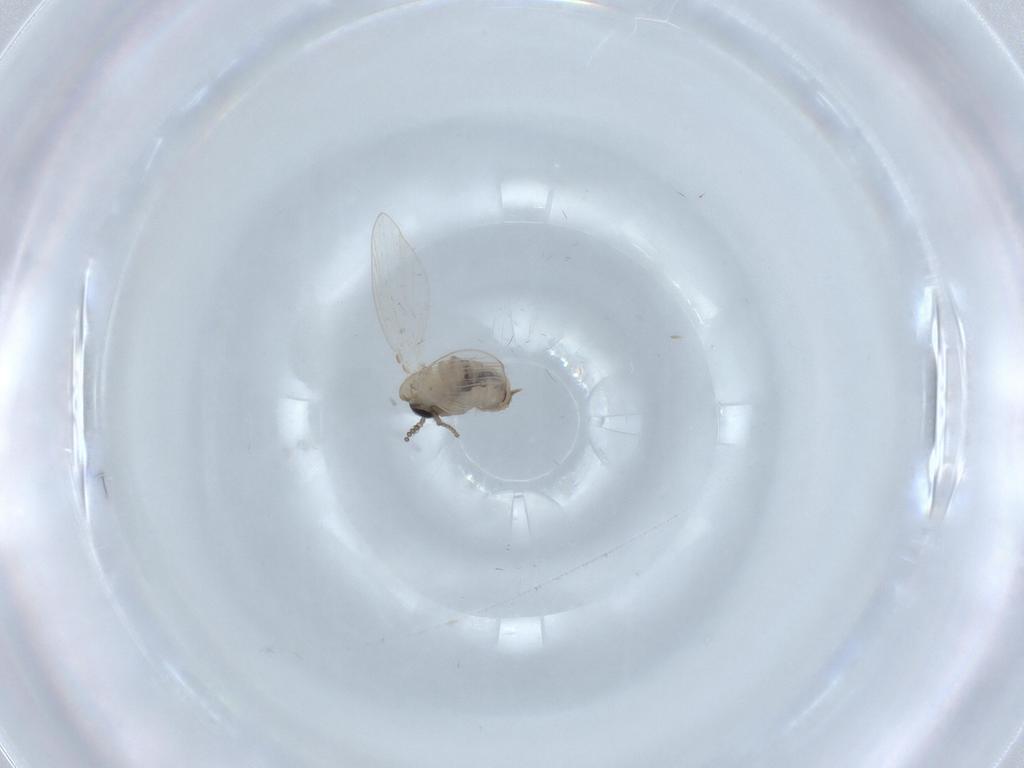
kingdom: Animalia
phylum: Arthropoda
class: Insecta
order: Diptera
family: Psychodidae
